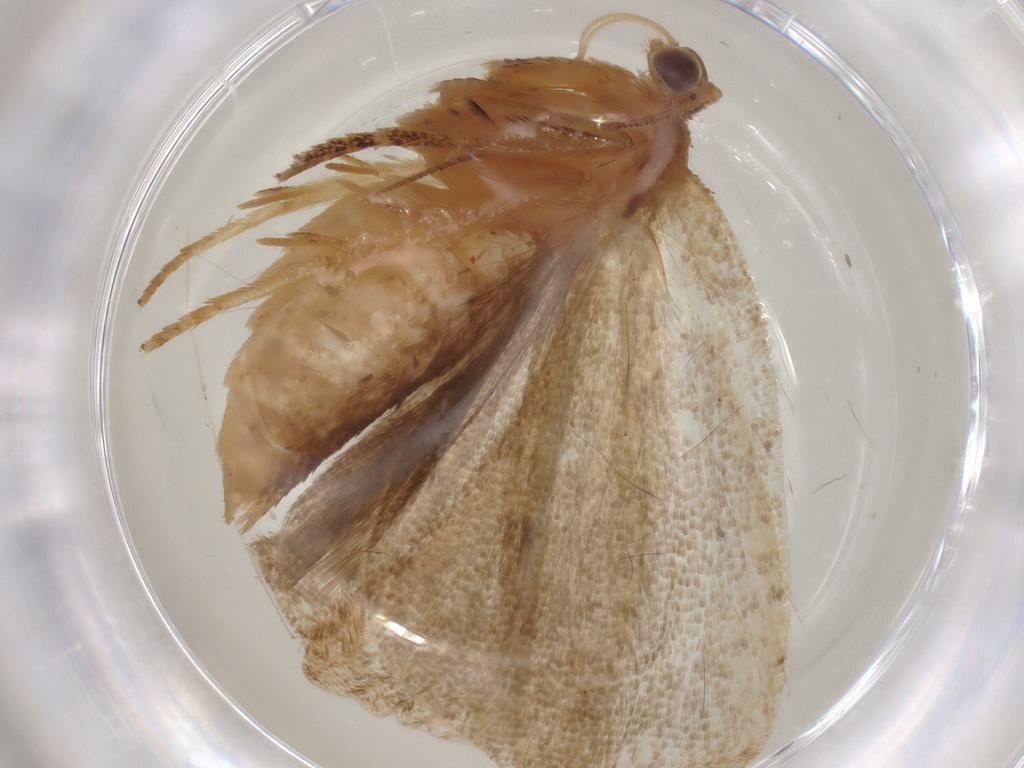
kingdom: Animalia
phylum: Arthropoda
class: Insecta
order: Lepidoptera
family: Tortricidae
